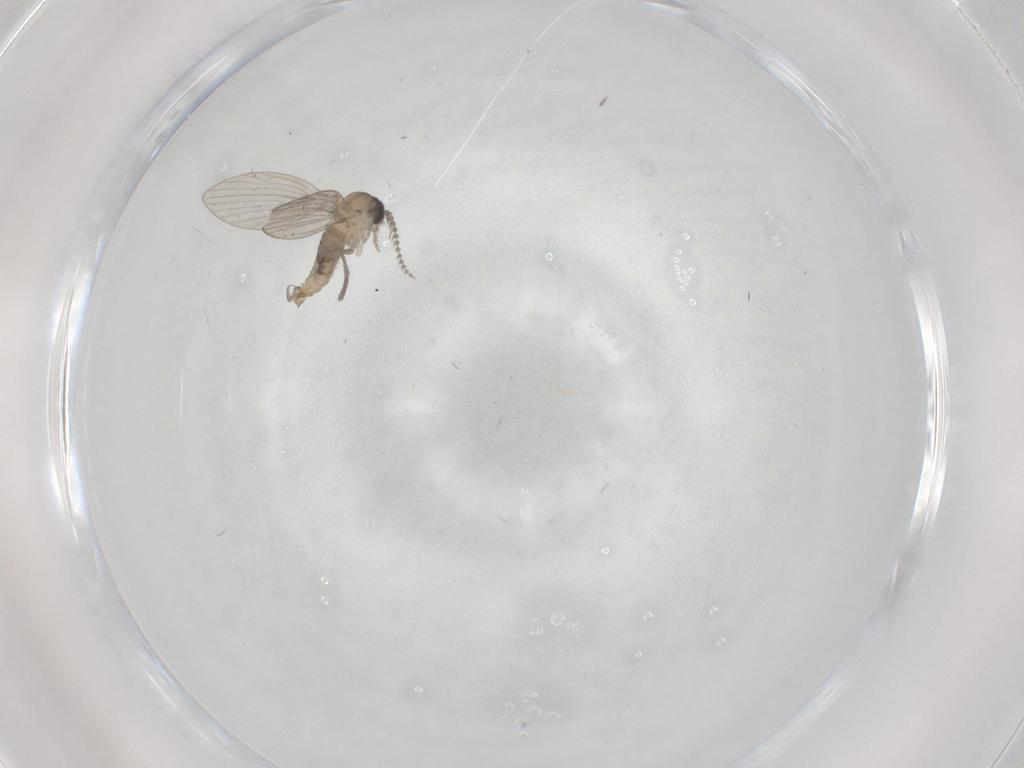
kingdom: Animalia
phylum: Arthropoda
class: Insecta
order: Diptera
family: Psychodidae
